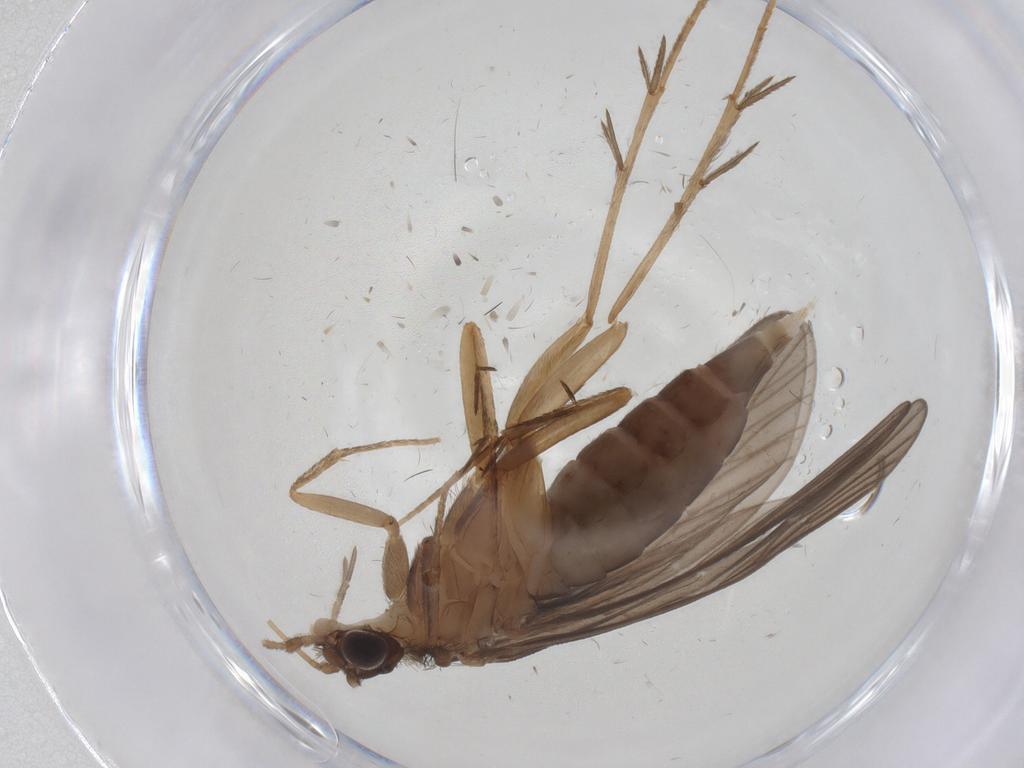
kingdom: Animalia
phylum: Arthropoda
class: Insecta
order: Trichoptera
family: Philopotamidae
